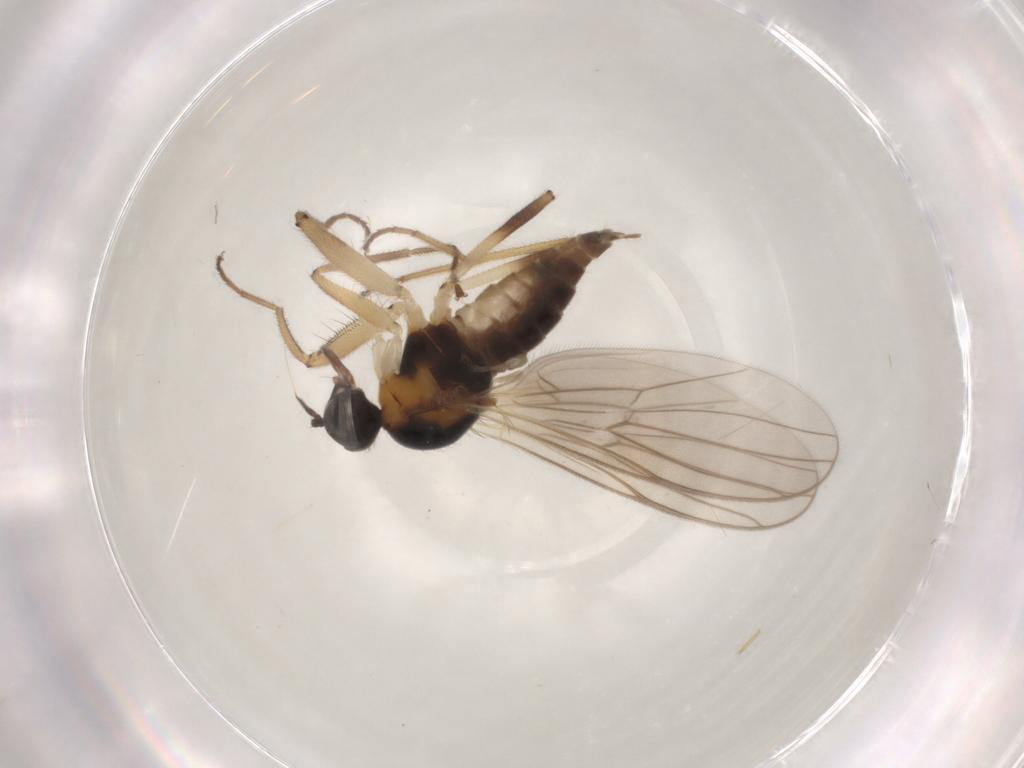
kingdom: Animalia
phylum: Arthropoda
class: Insecta
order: Diptera
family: Hybotidae
